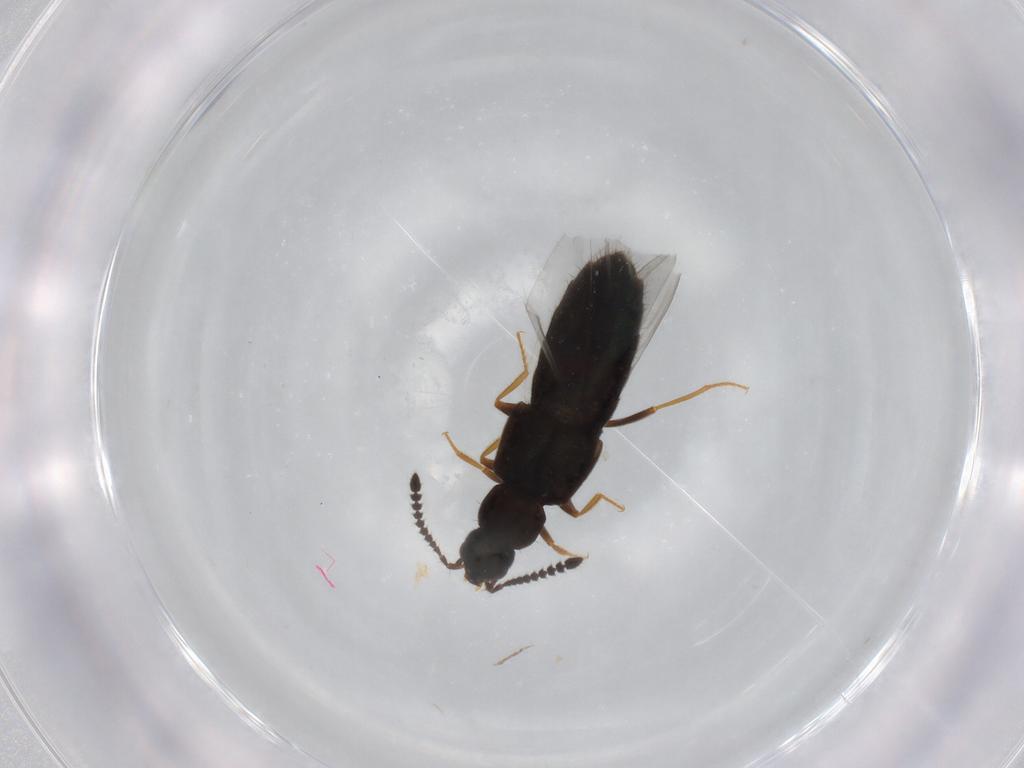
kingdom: Animalia
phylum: Arthropoda
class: Insecta
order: Coleoptera
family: Staphylinidae
